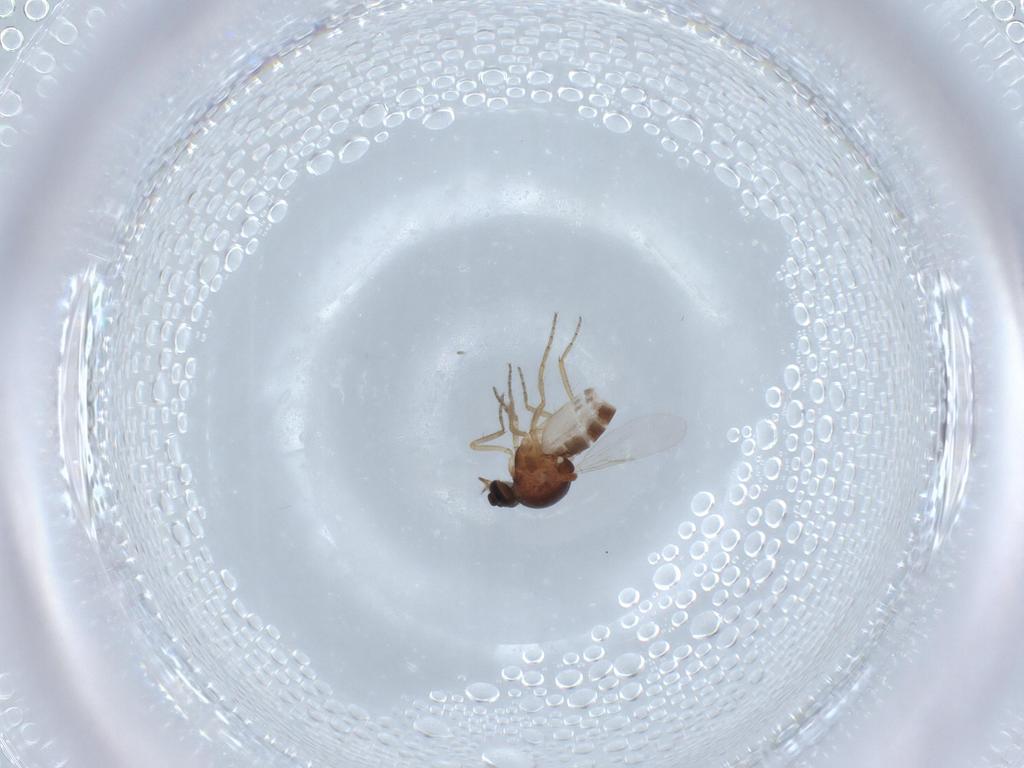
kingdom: Animalia
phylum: Arthropoda
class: Insecta
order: Diptera
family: Ceratopogonidae
